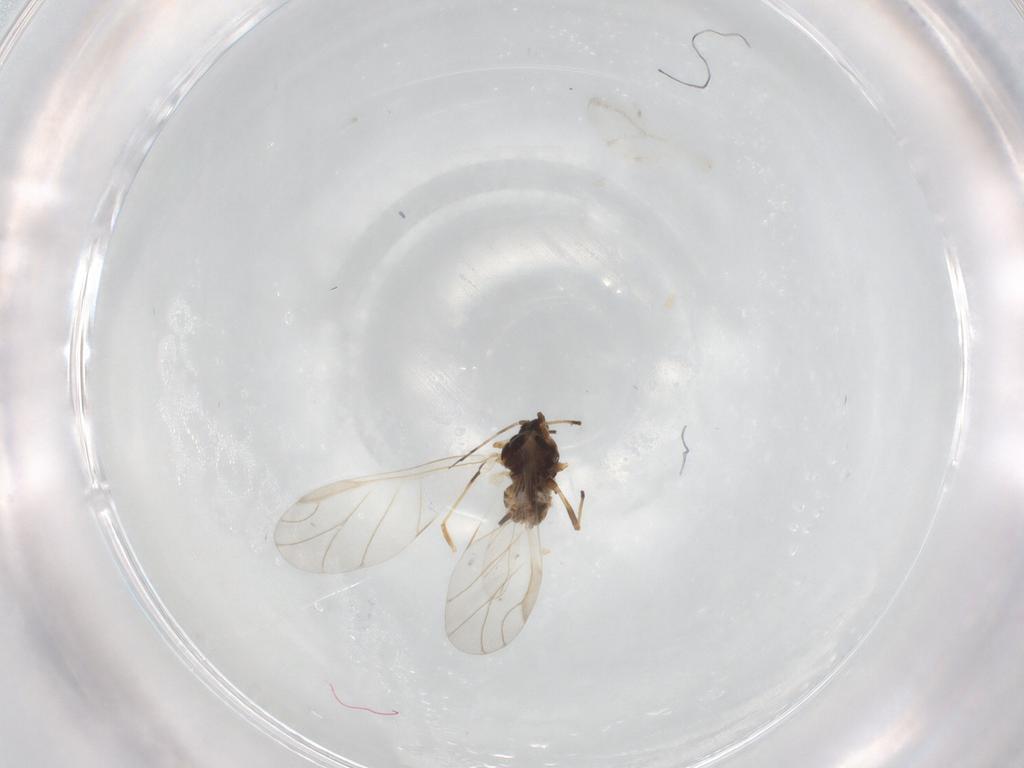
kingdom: Animalia
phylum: Arthropoda
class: Insecta
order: Hemiptera
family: Aphididae
